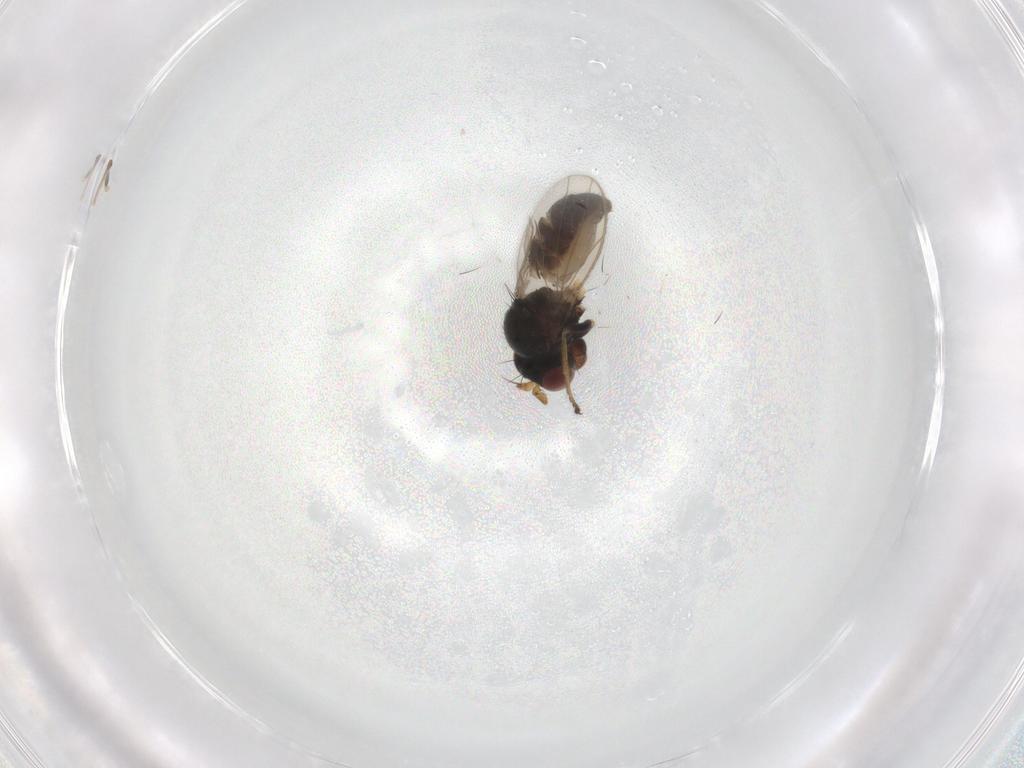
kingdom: Animalia
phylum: Arthropoda
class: Insecta
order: Diptera
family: Ephydridae
